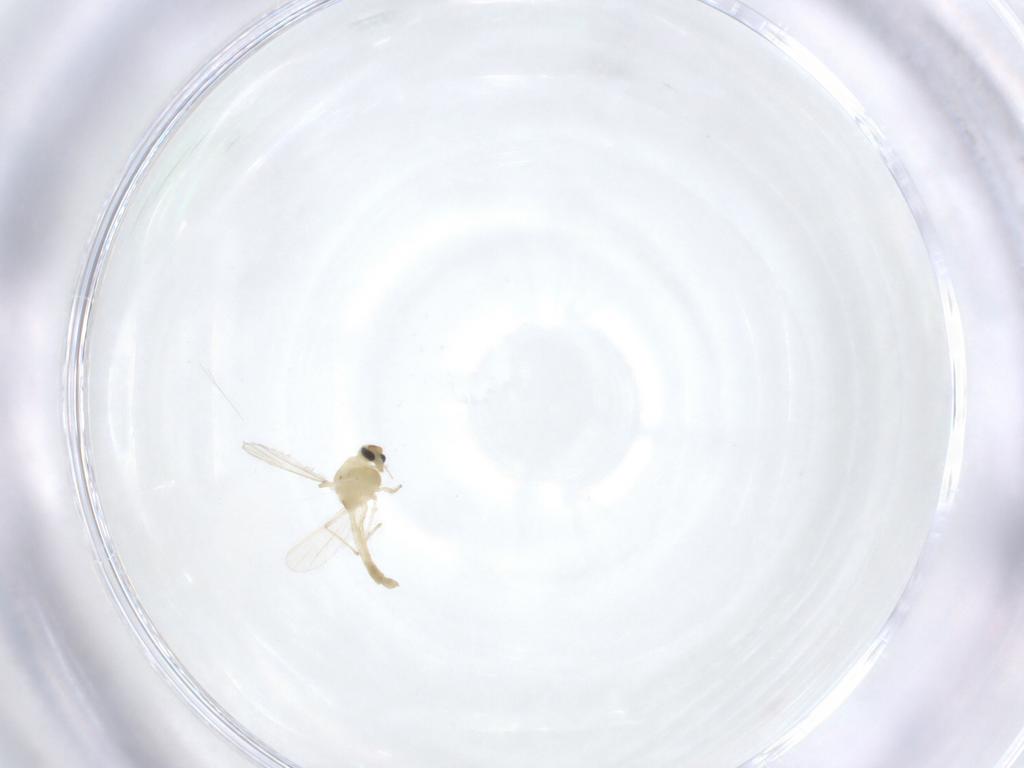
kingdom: Animalia
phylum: Arthropoda
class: Insecta
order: Diptera
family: Chironomidae
